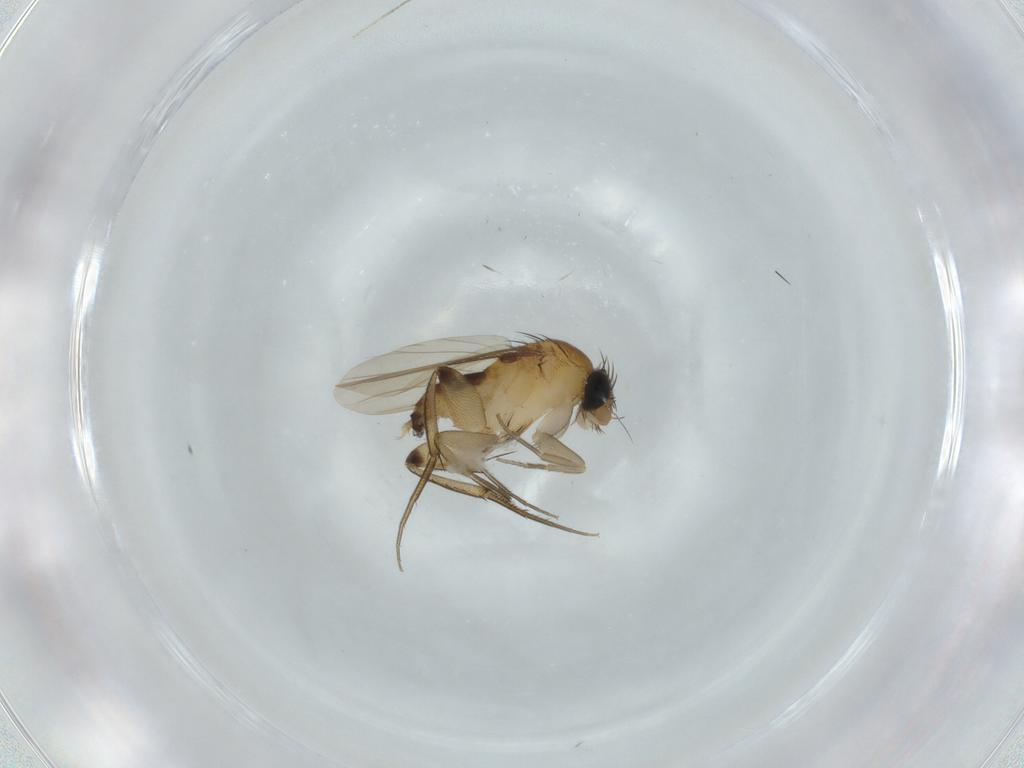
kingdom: Animalia
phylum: Arthropoda
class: Insecta
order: Diptera
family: Phoridae
